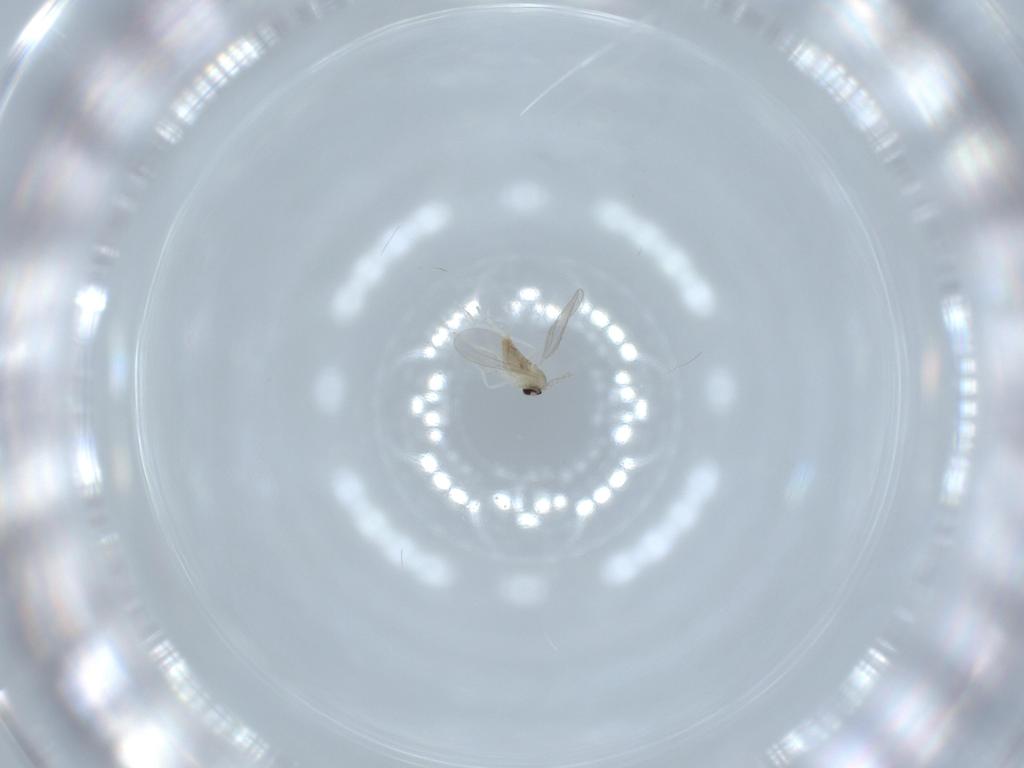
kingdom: Animalia
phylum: Arthropoda
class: Insecta
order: Diptera
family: Cecidomyiidae
